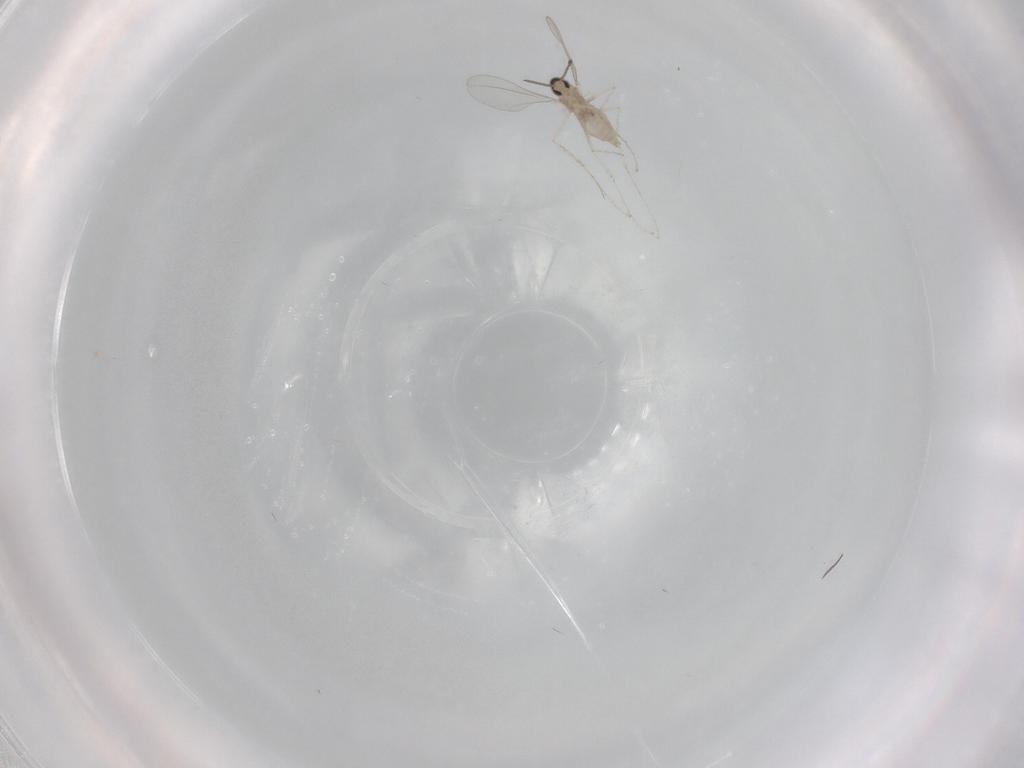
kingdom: Animalia
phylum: Arthropoda
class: Insecta
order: Diptera
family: Cecidomyiidae
